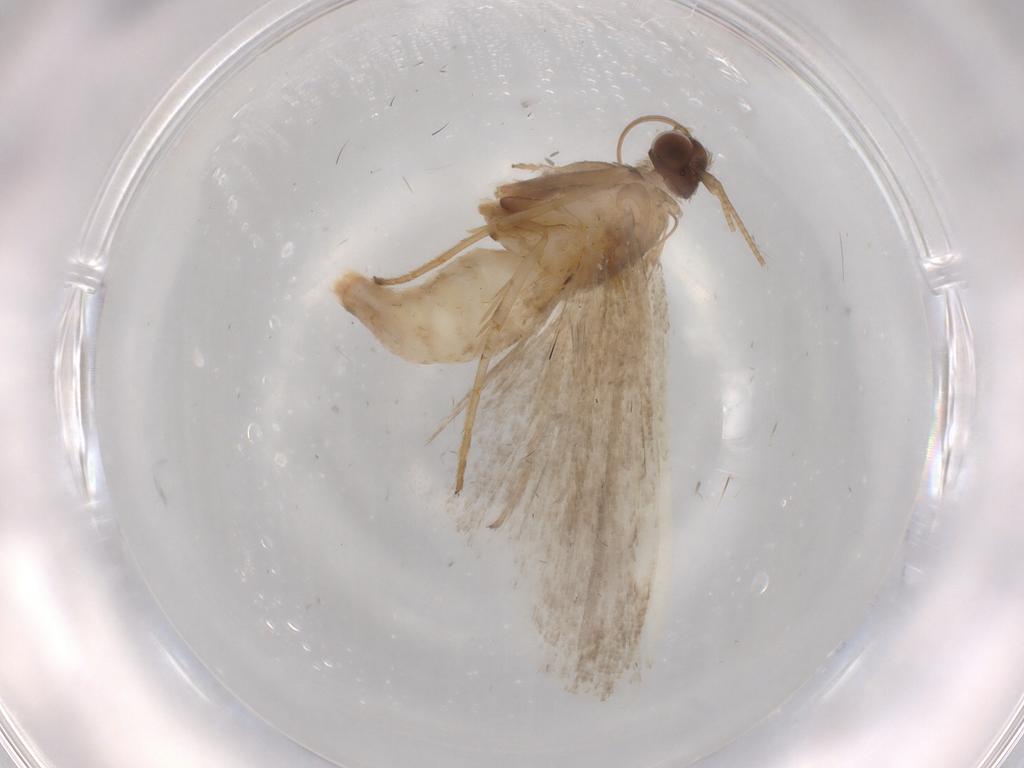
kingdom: Animalia
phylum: Arthropoda
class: Insecta
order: Lepidoptera
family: Noctuidae
